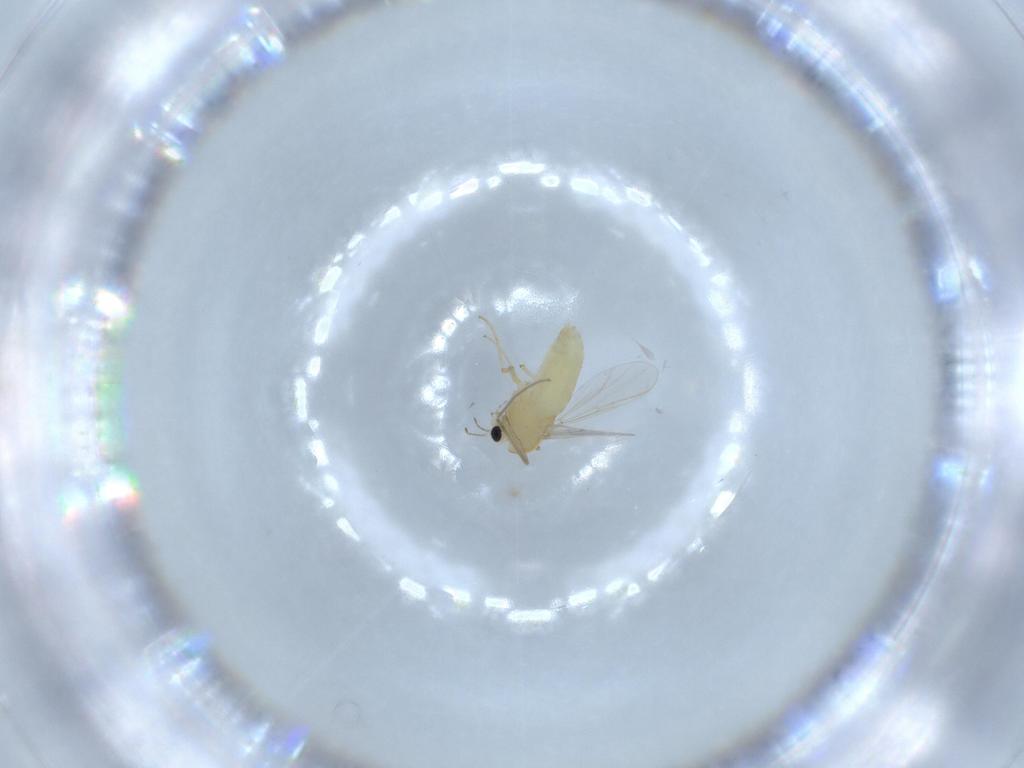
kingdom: Animalia
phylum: Arthropoda
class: Insecta
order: Diptera
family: Chironomidae
